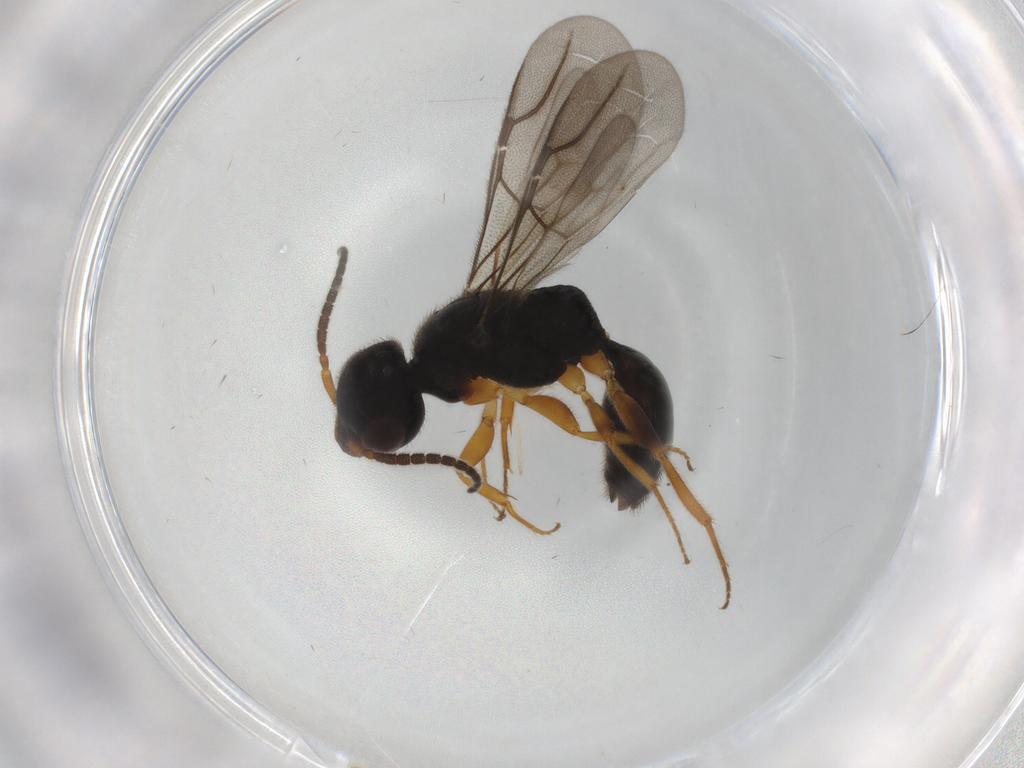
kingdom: Animalia
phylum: Arthropoda
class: Insecta
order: Hymenoptera
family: Bethylidae
